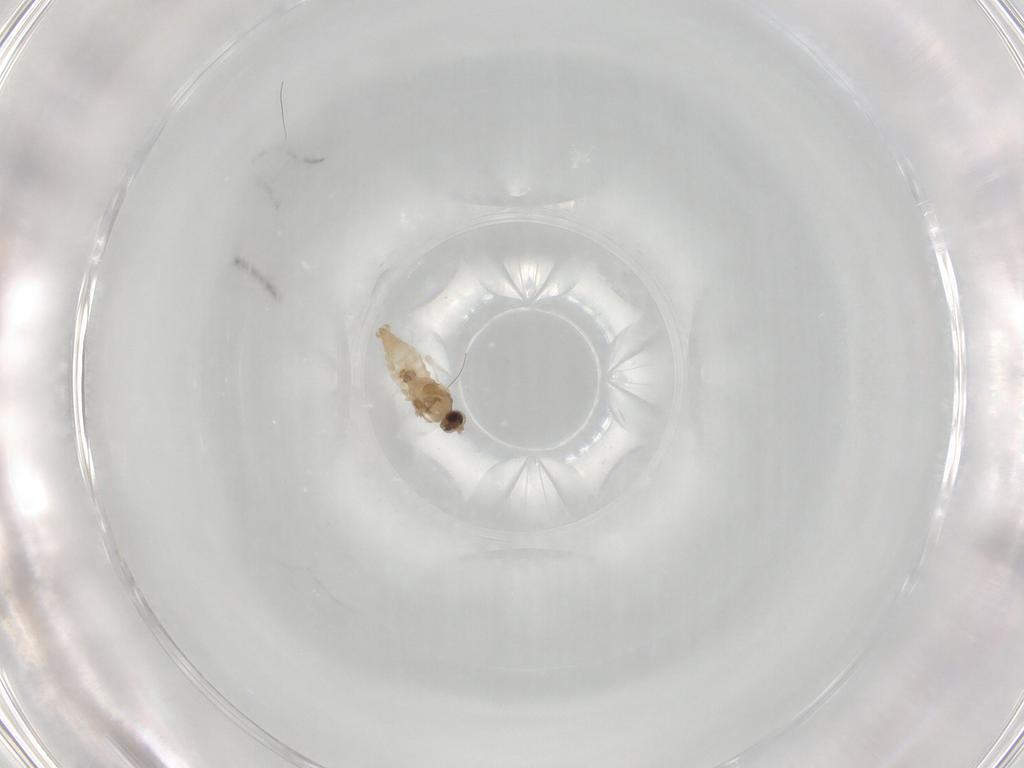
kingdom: Animalia
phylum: Arthropoda
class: Insecta
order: Diptera
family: Cecidomyiidae
